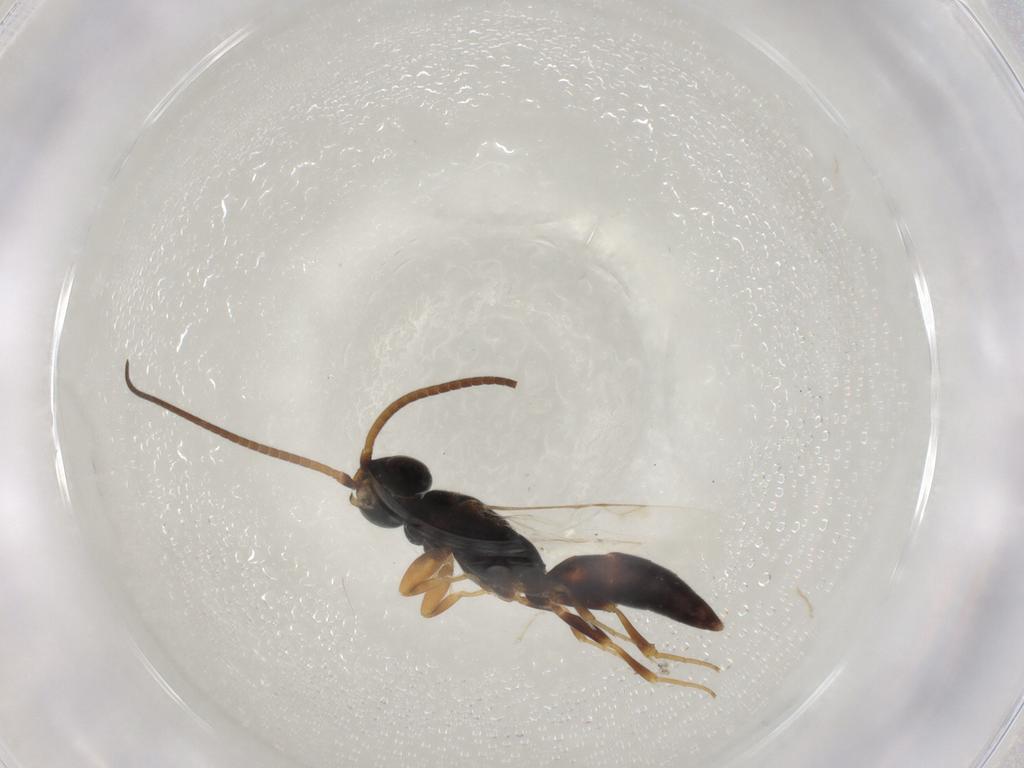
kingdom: Animalia
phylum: Arthropoda
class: Insecta
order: Hymenoptera
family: Sclerogibbidae
